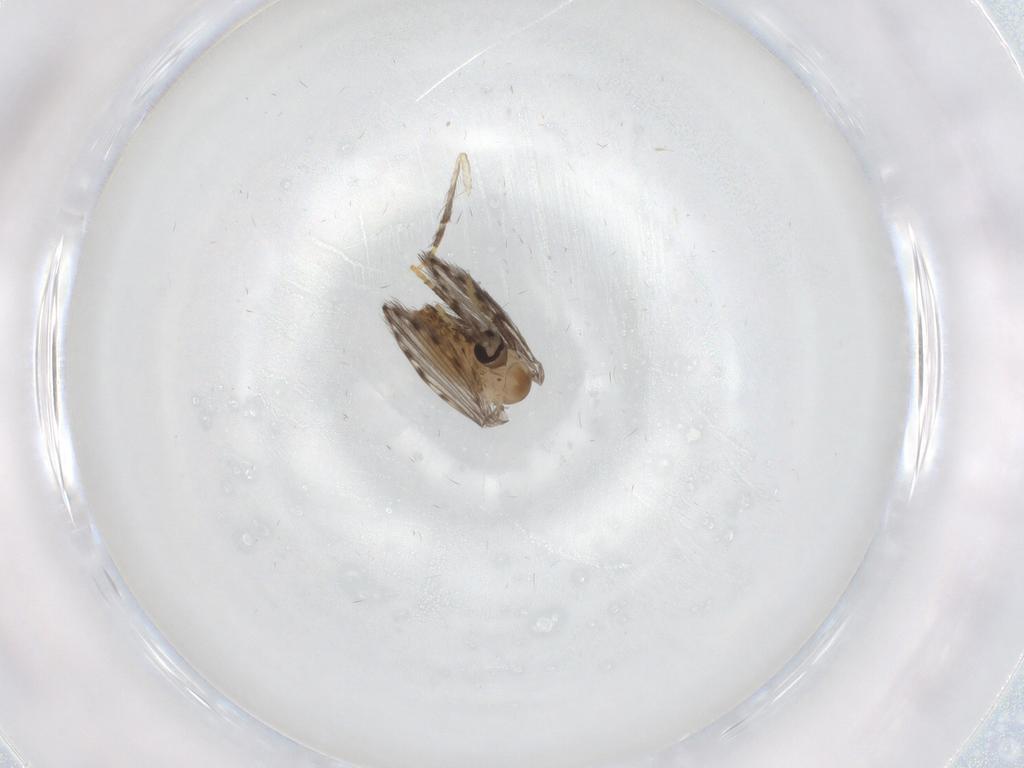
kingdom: Animalia
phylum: Arthropoda
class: Insecta
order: Diptera
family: Psychodidae
